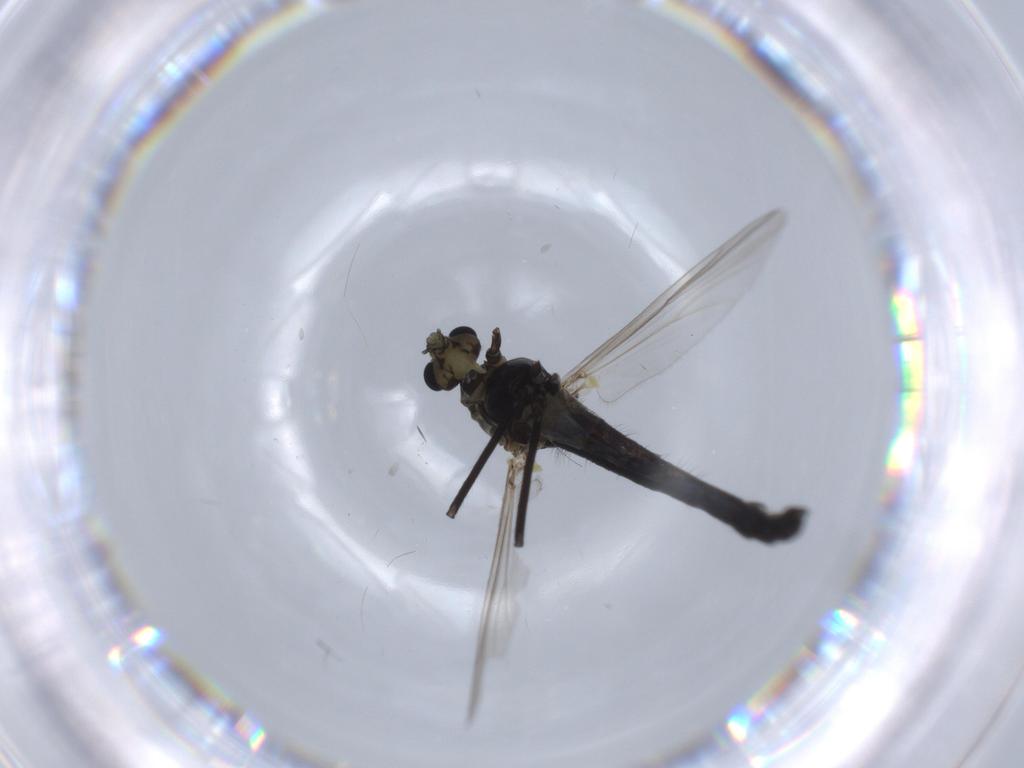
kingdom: Animalia
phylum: Arthropoda
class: Insecta
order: Diptera
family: Chironomidae
